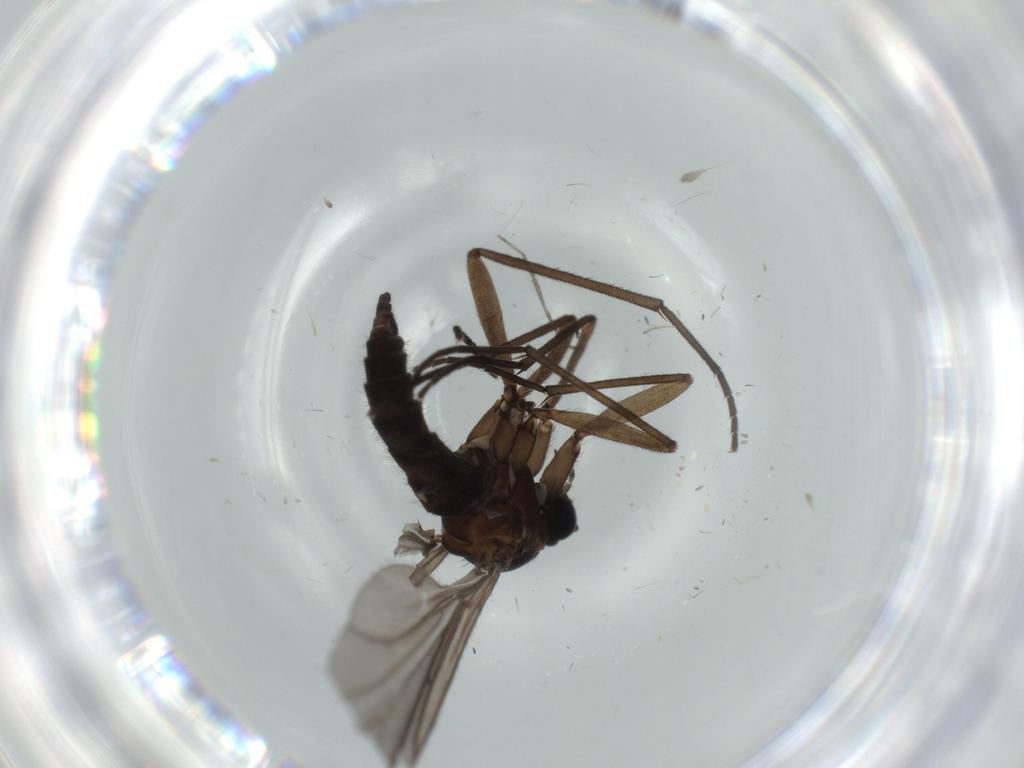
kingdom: Animalia
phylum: Arthropoda
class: Insecta
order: Diptera
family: Sciaridae
